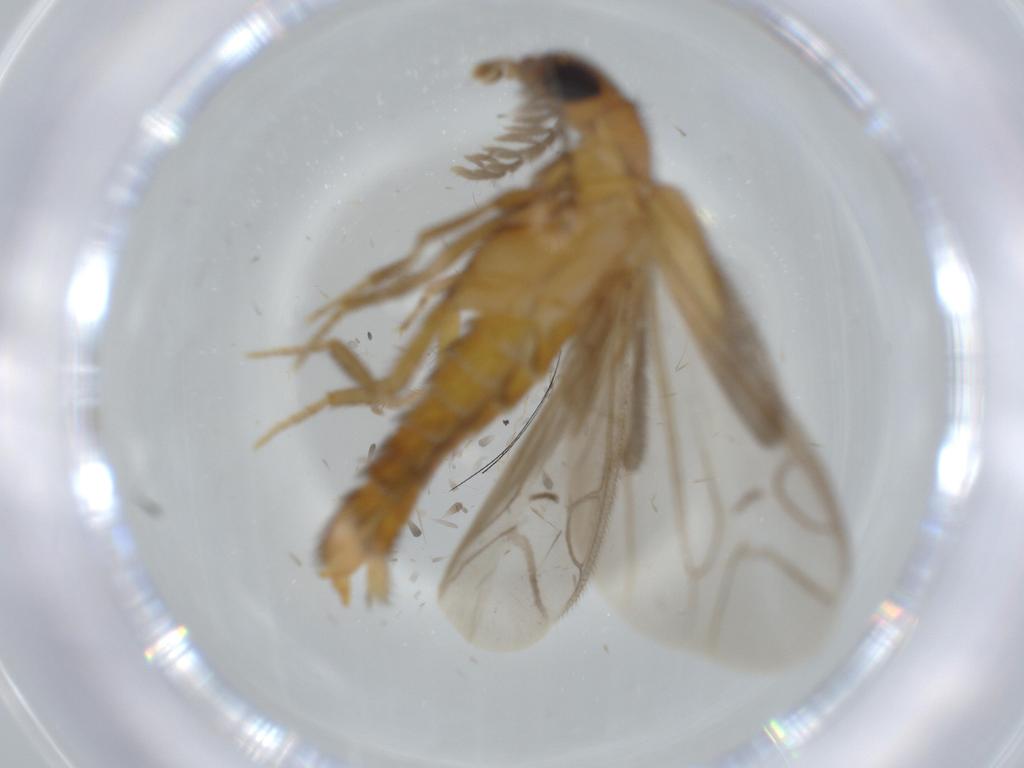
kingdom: Animalia
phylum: Arthropoda
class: Insecta
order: Coleoptera
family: Phengodidae
